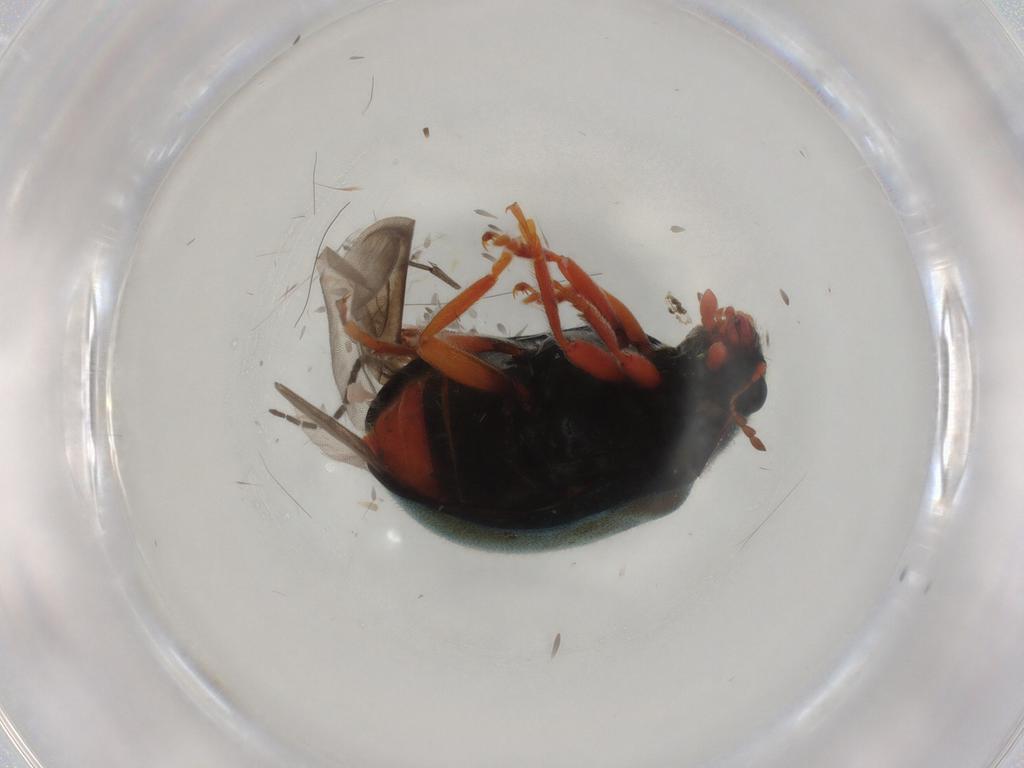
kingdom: Animalia
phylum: Arthropoda
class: Insecta
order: Coleoptera
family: Coccinellidae
